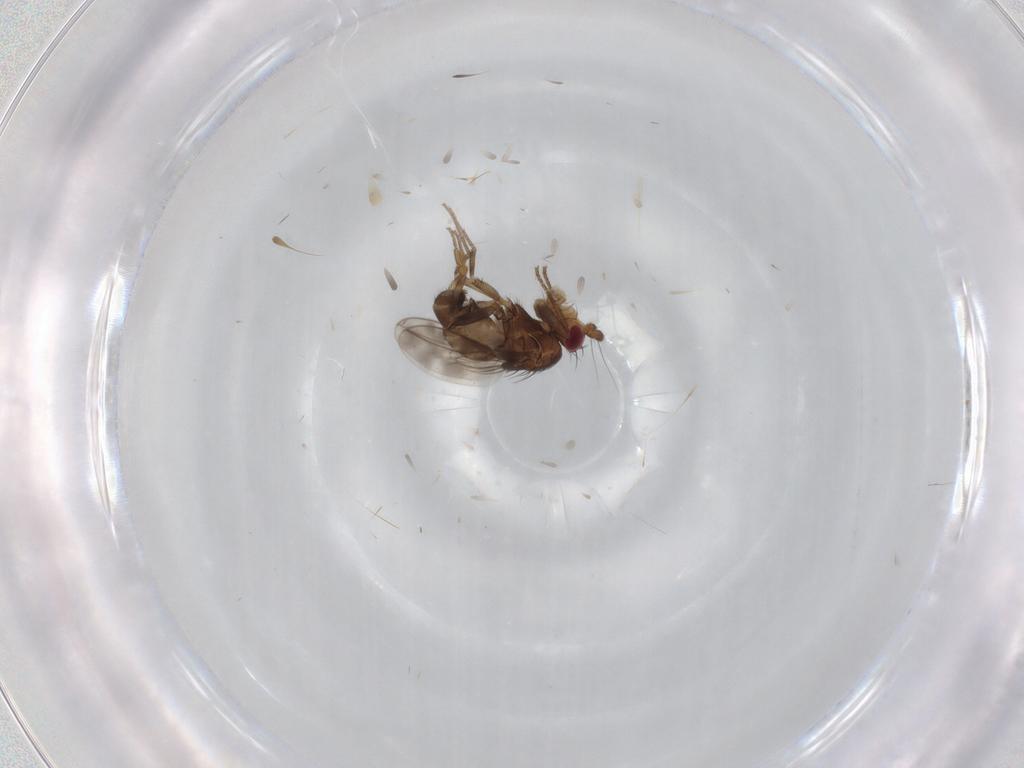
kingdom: Animalia
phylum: Arthropoda
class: Insecta
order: Diptera
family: Sphaeroceridae
